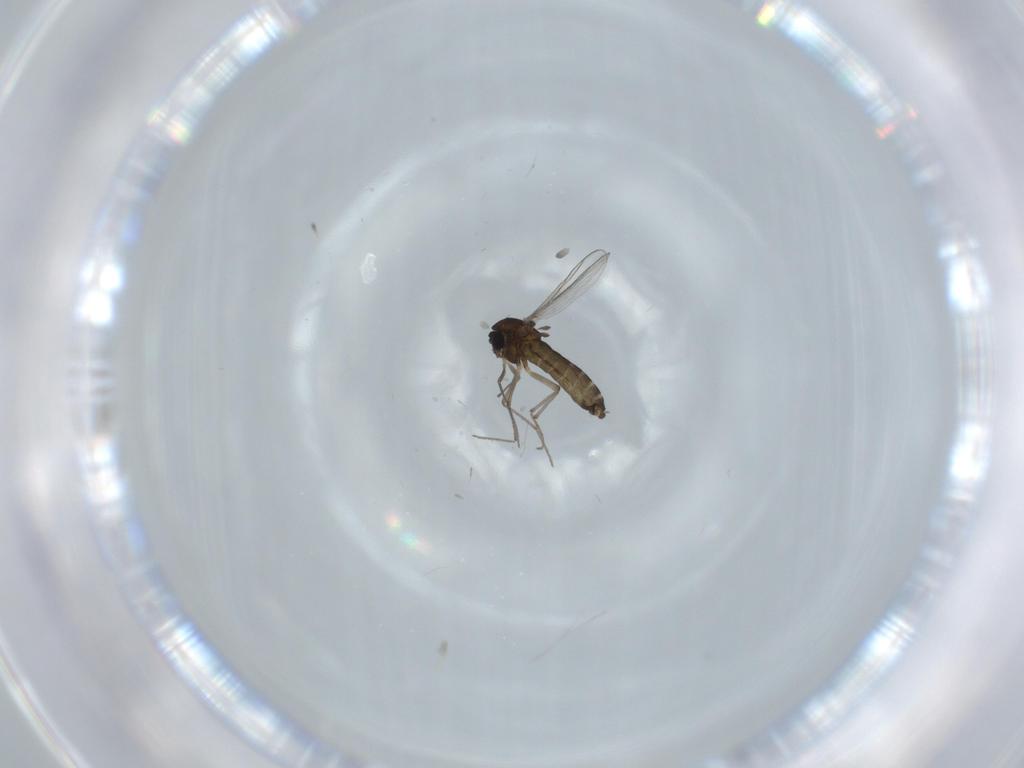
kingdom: Animalia
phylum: Arthropoda
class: Insecta
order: Diptera
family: Chironomidae
